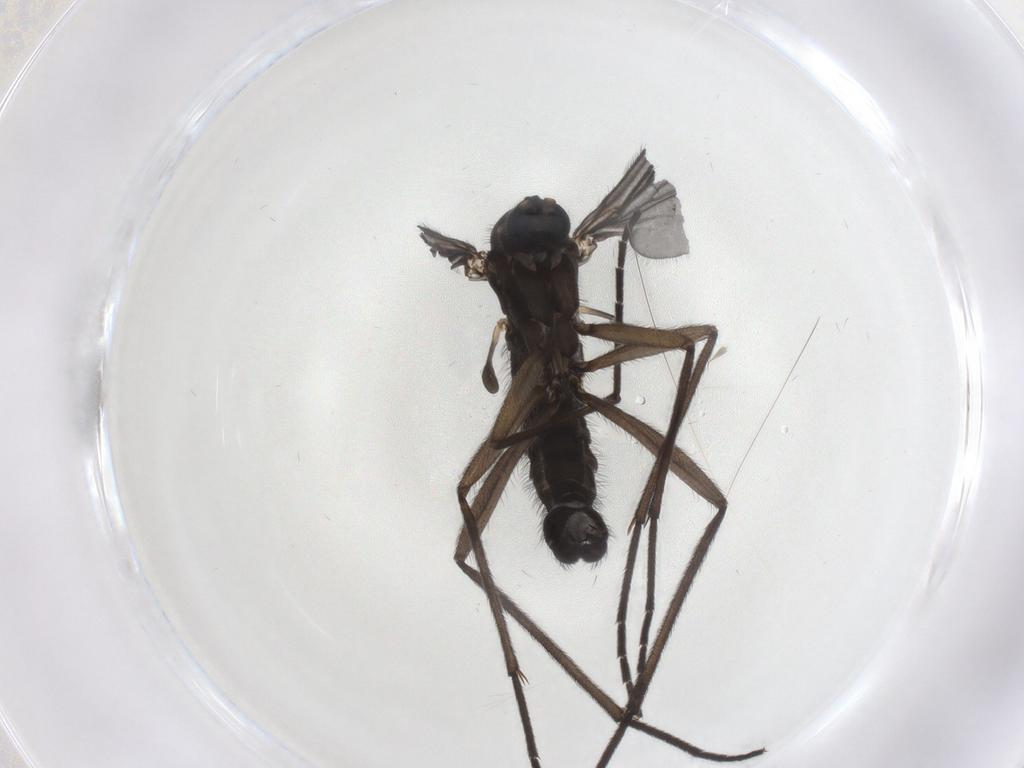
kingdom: Animalia
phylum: Arthropoda
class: Insecta
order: Diptera
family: Sciaridae
